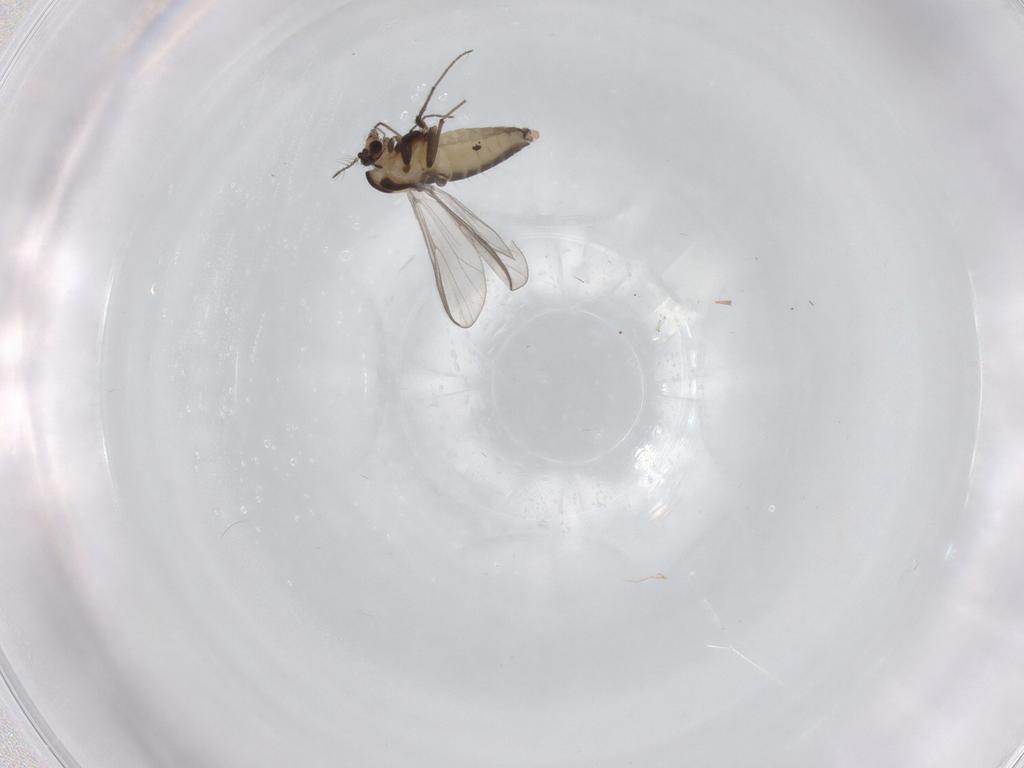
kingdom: Animalia
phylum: Arthropoda
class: Insecta
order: Diptera
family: Chironomidae
